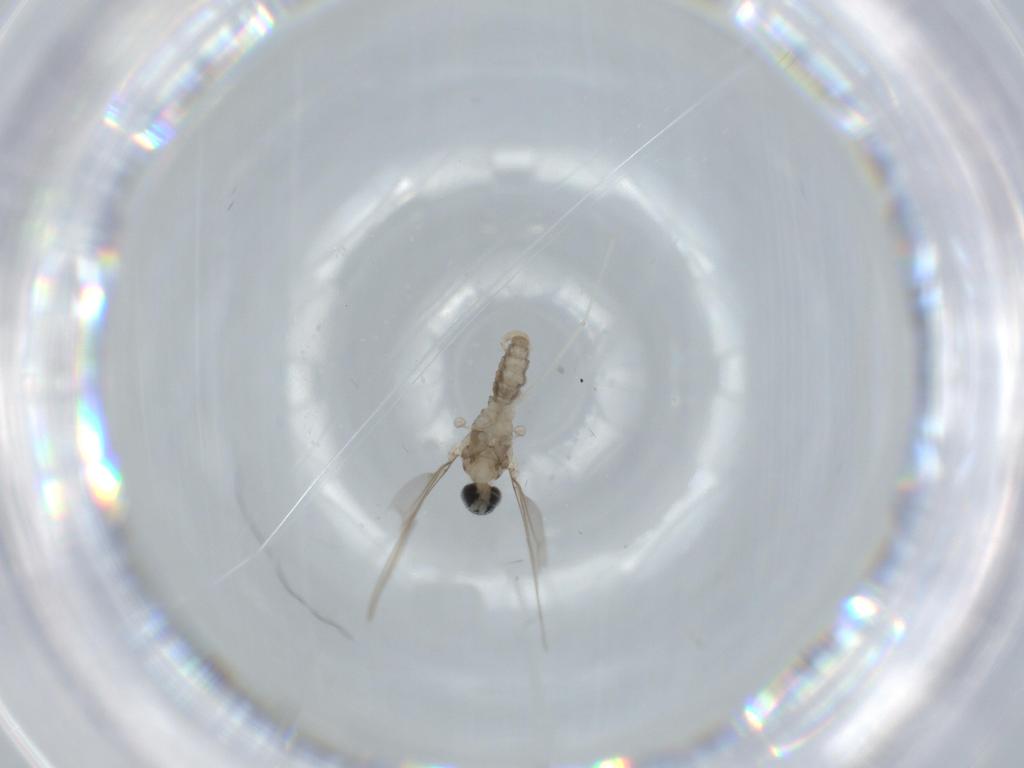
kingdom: Animalia
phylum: Arthropoda
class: Insecta
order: Diptera
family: Cecidomyiidae
